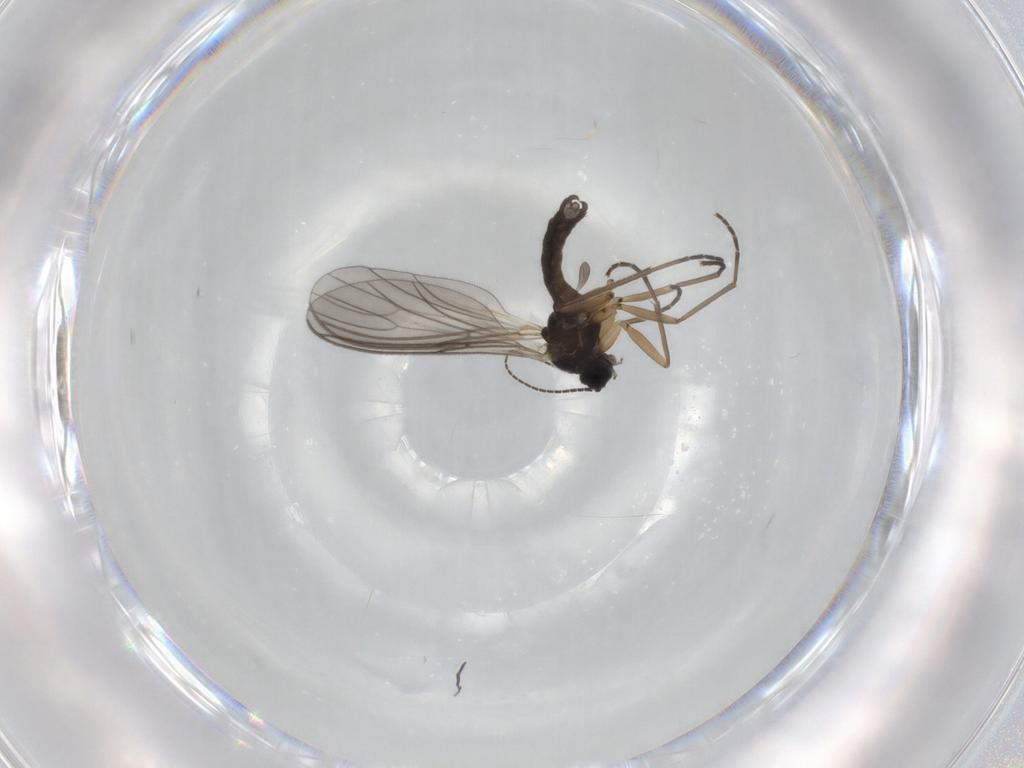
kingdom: Animalia
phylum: Arthropoda
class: Insecta
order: Diptera
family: Sciaridae
